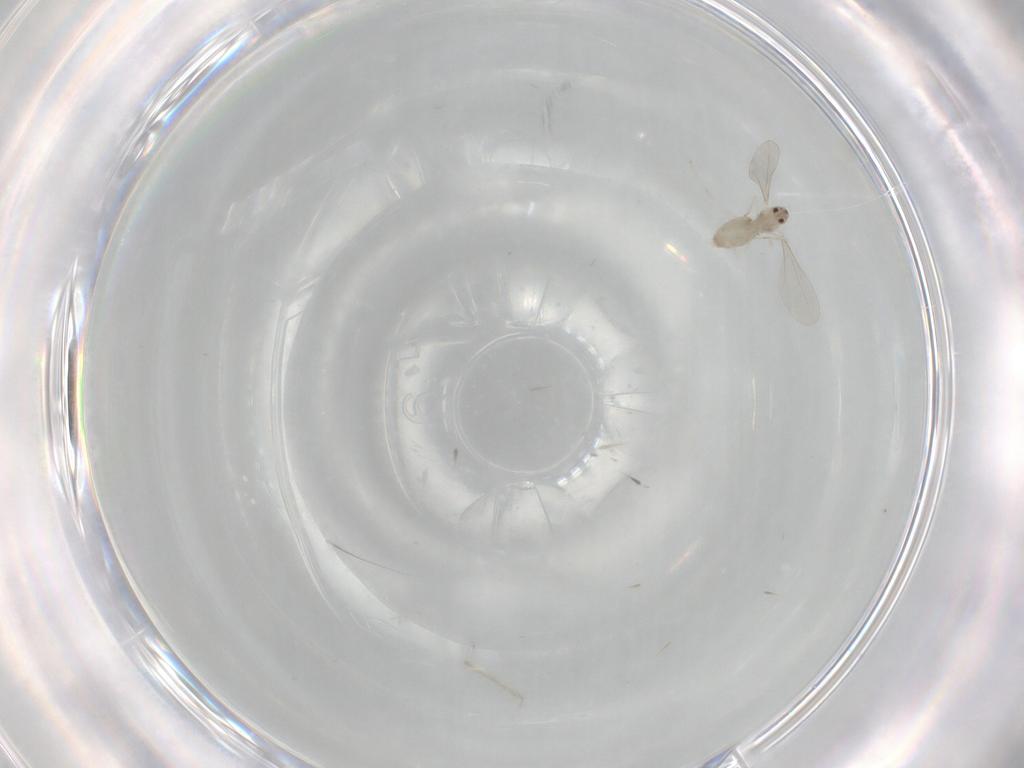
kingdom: Animalia
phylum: Arthropoda
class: Insecta
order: Diptera
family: Cecidomyiidae
